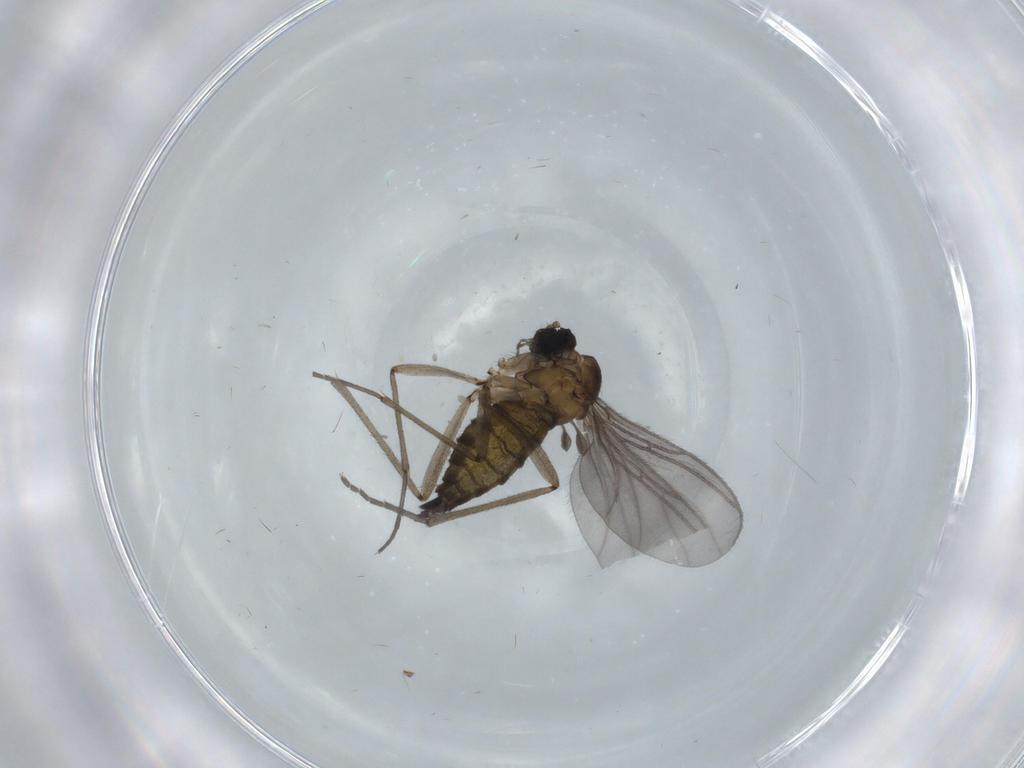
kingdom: Animalia
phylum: Arthropoda
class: Insecta
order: Diptera
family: Sciaridae
